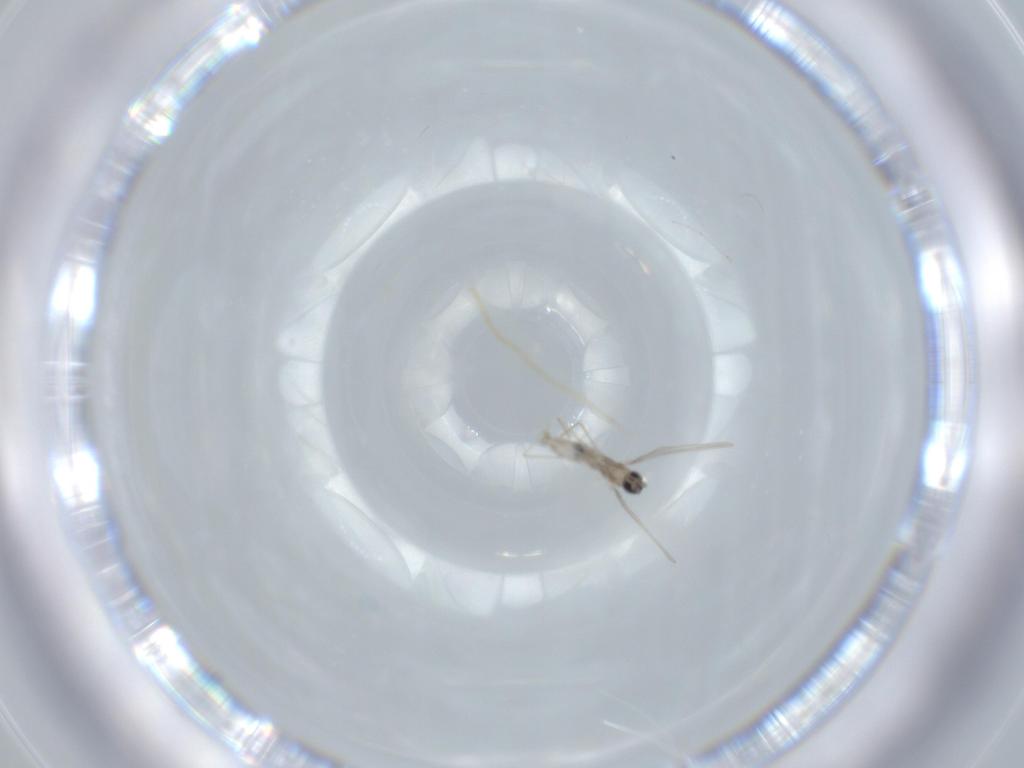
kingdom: Animalia
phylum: Arthropoda
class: Insecta
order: Diptera
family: Cecidomyiidae
